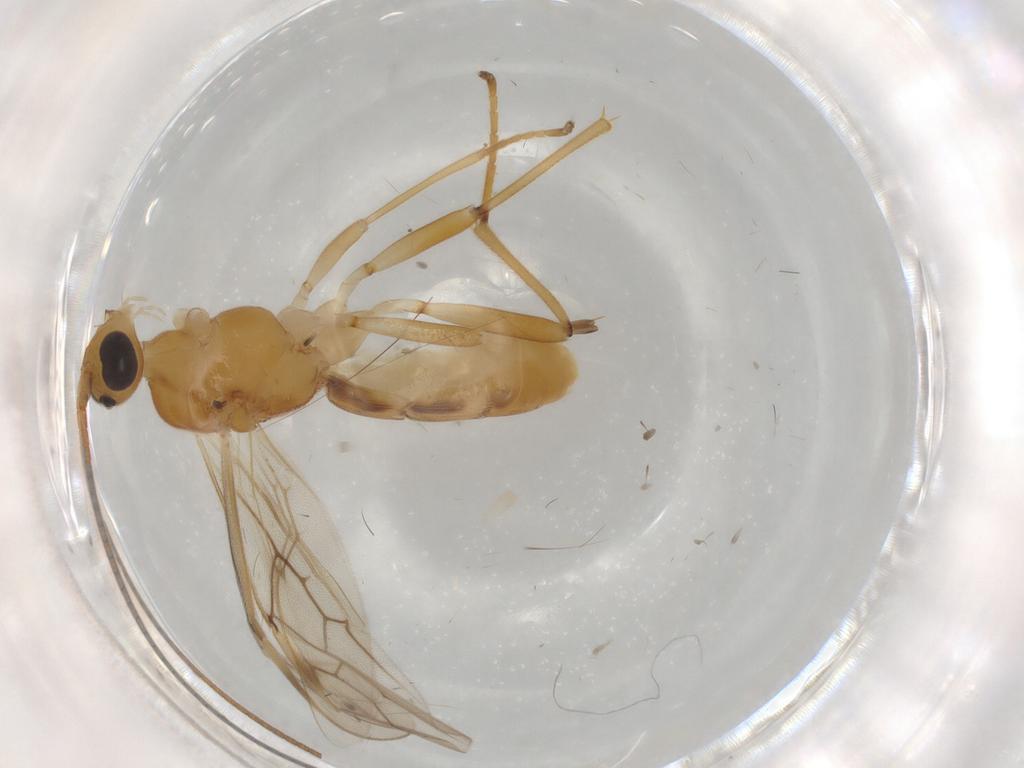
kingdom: Animalia
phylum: Arthropoda
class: Insecta
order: Hymenoptera
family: Braconidae
